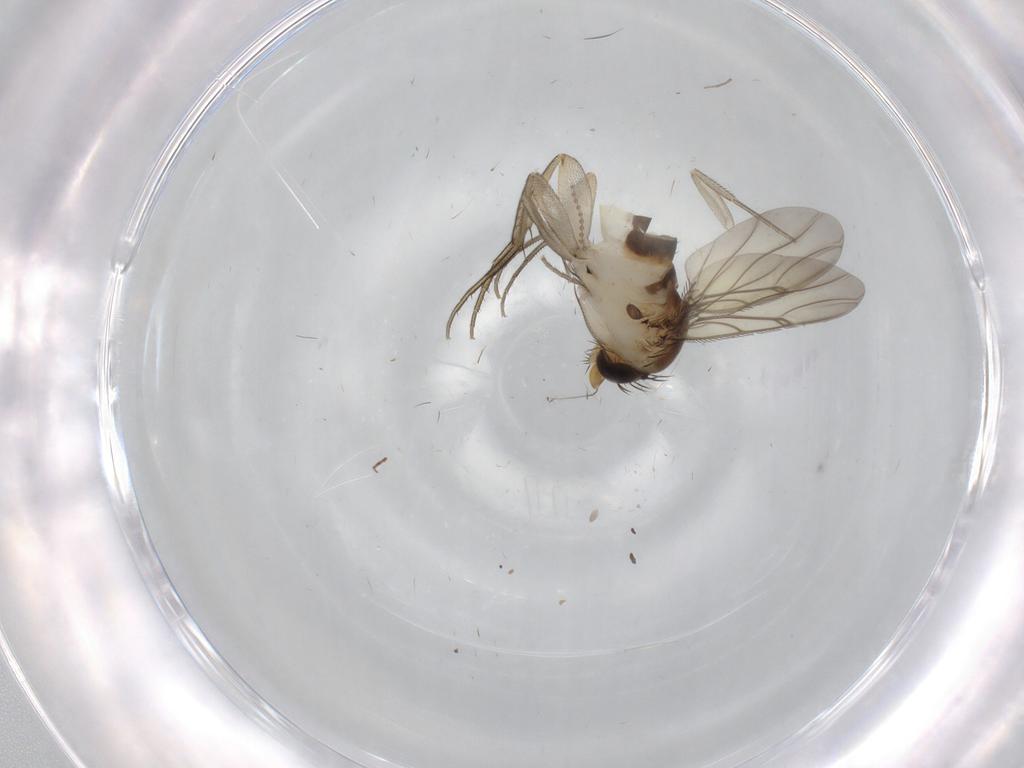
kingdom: Animalia
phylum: Arthropoda
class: Insecta
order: Diptera
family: Phoridae
